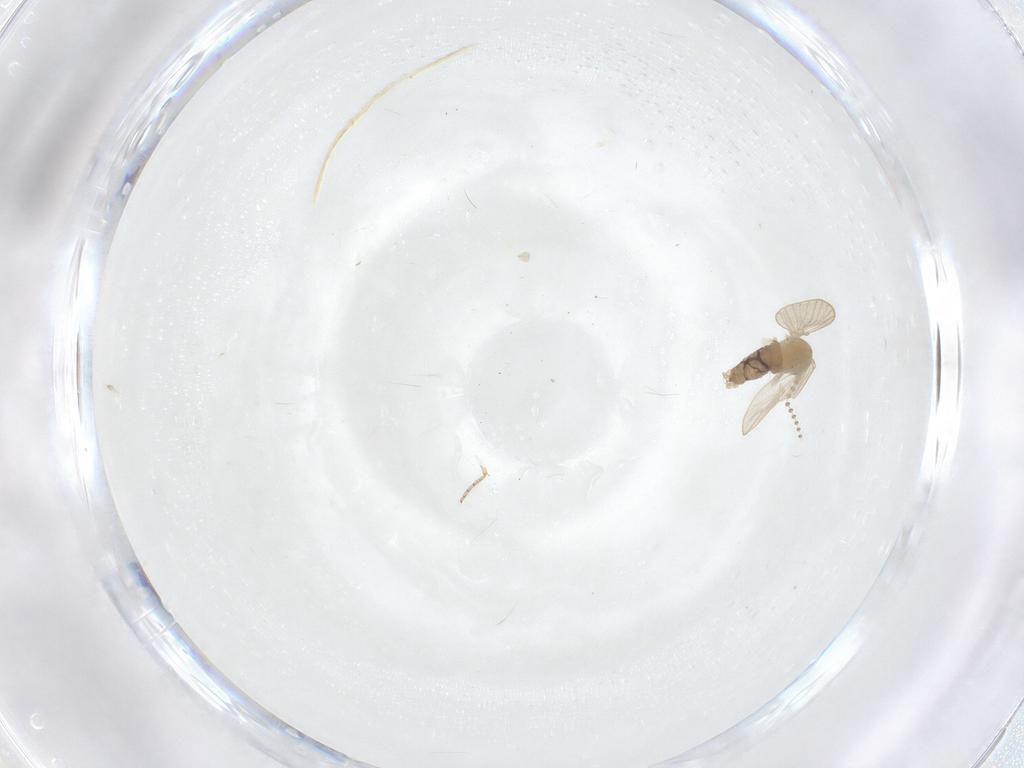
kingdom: Animalia
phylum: Arthropoda
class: Insecta
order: Diptera
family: Psychodidae
